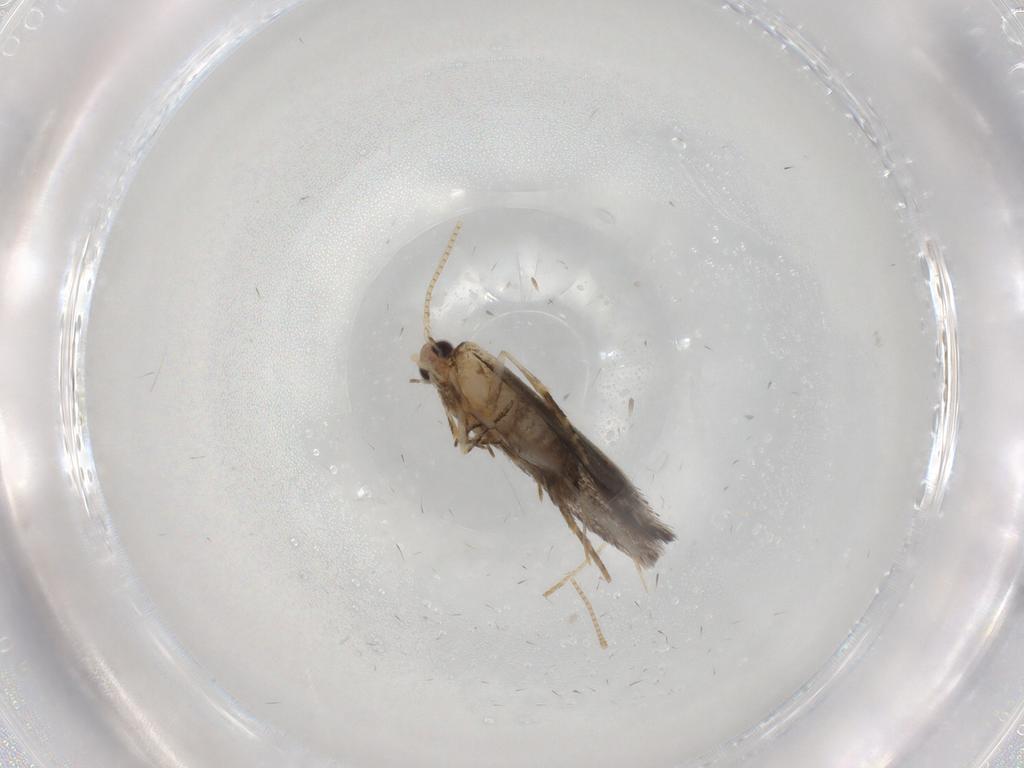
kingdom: Animalia
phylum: Arthropoda
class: Insecta
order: Lepidoptera
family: Tineidae
